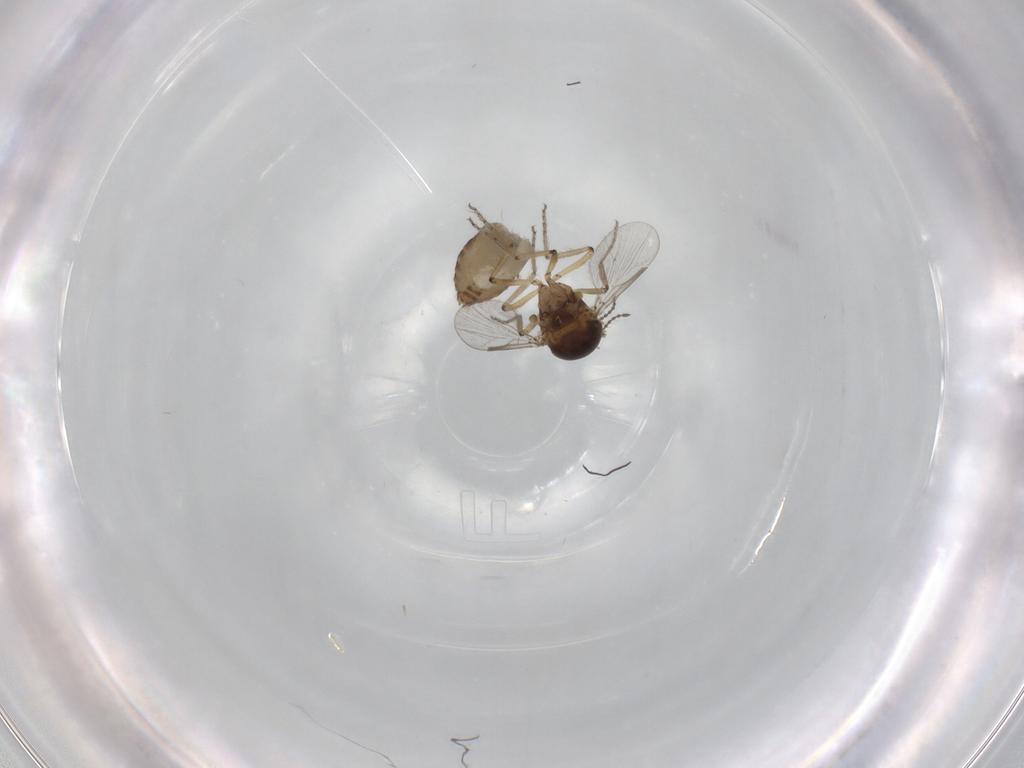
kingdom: Animalia
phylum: Arthropoda
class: Insecta
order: Diptera
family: Ceratopogonidae
